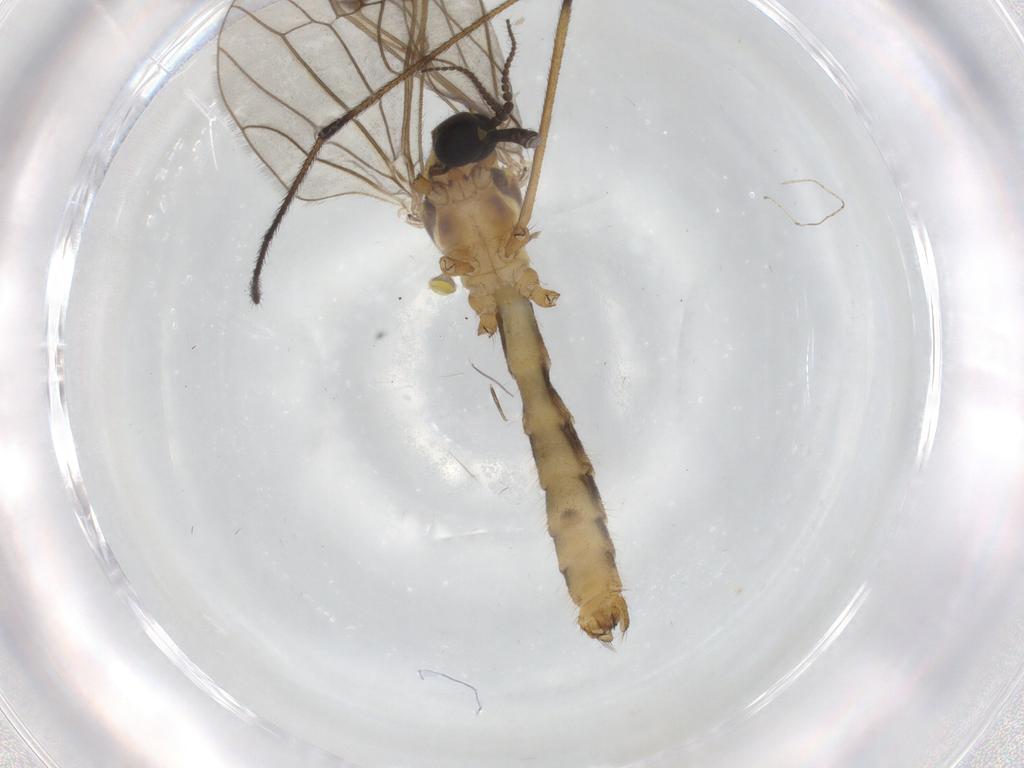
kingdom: Animalia
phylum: Arthropoda
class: Insecta
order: Diptera
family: Limoniidae
